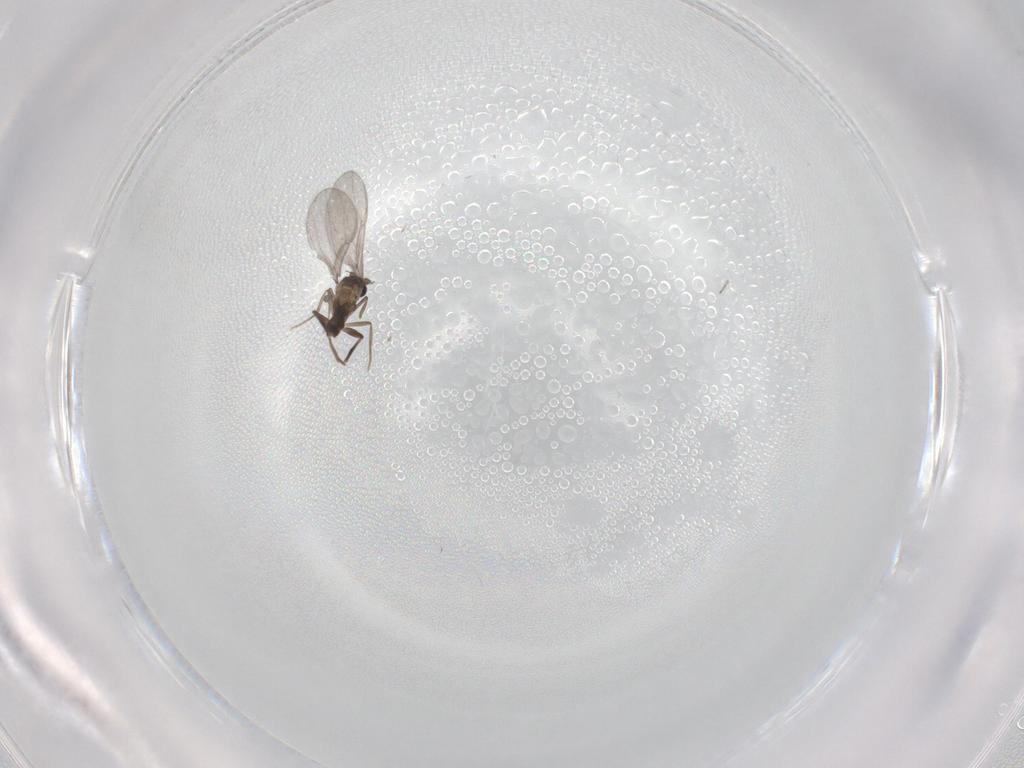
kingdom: Animalia
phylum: Arthropoda
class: Insecta
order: Diptera
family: Phoridae
